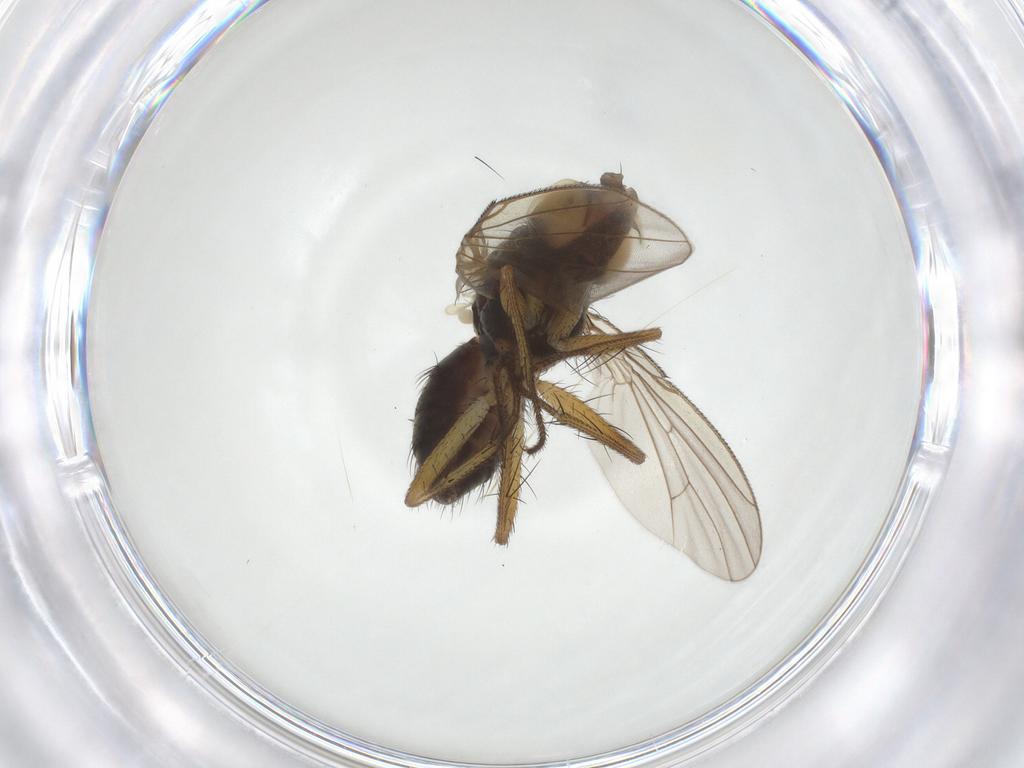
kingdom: Animalia
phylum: Arthropoda
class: Insecta
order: Diptera
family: Muscidae
